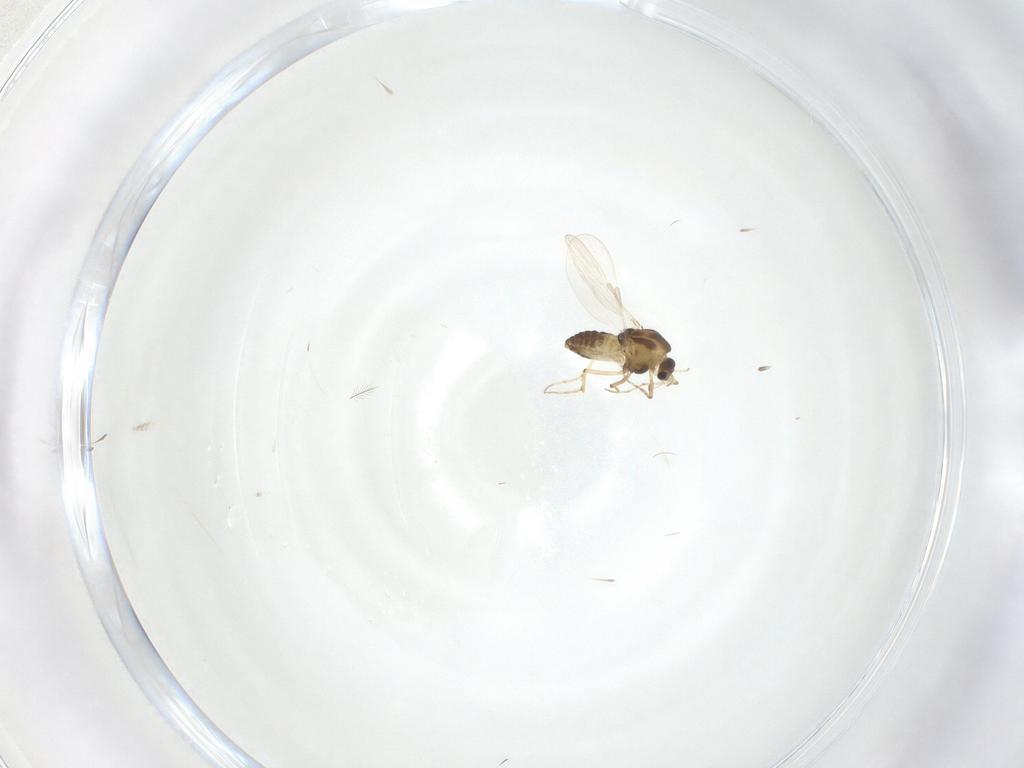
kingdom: Animalia
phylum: Arthropoda
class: Insecta
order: Diptera
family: Chironomidae
